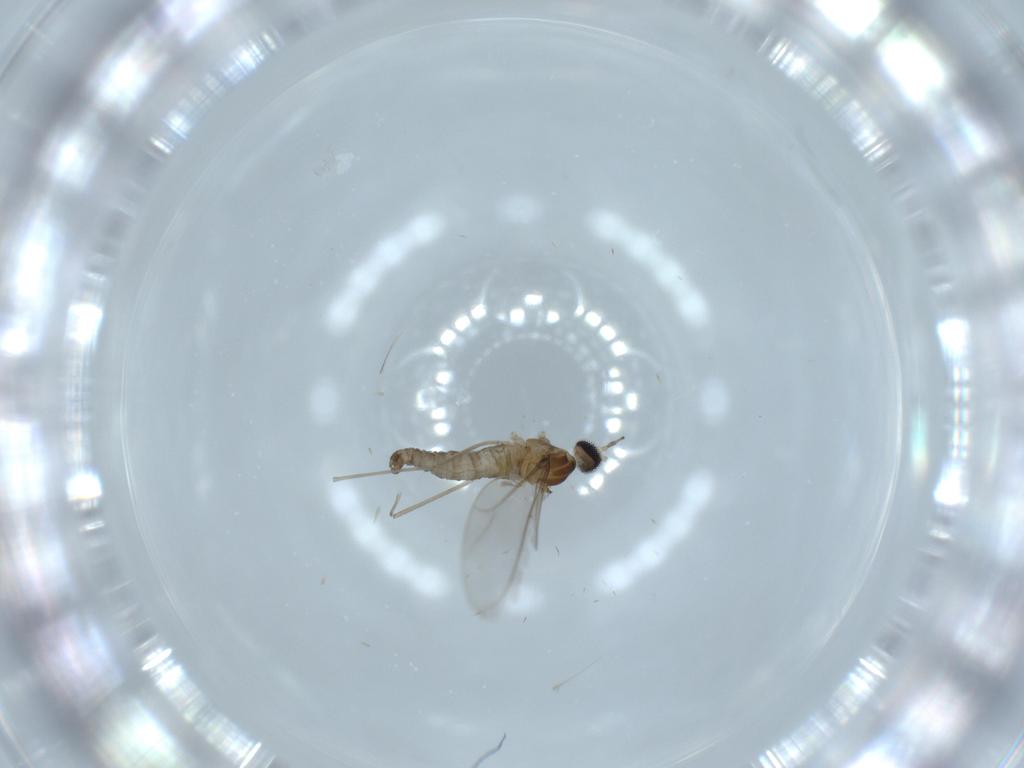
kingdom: Animalia
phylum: Arthropoda
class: Insecta
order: Diptera
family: Cecidomyiidae
